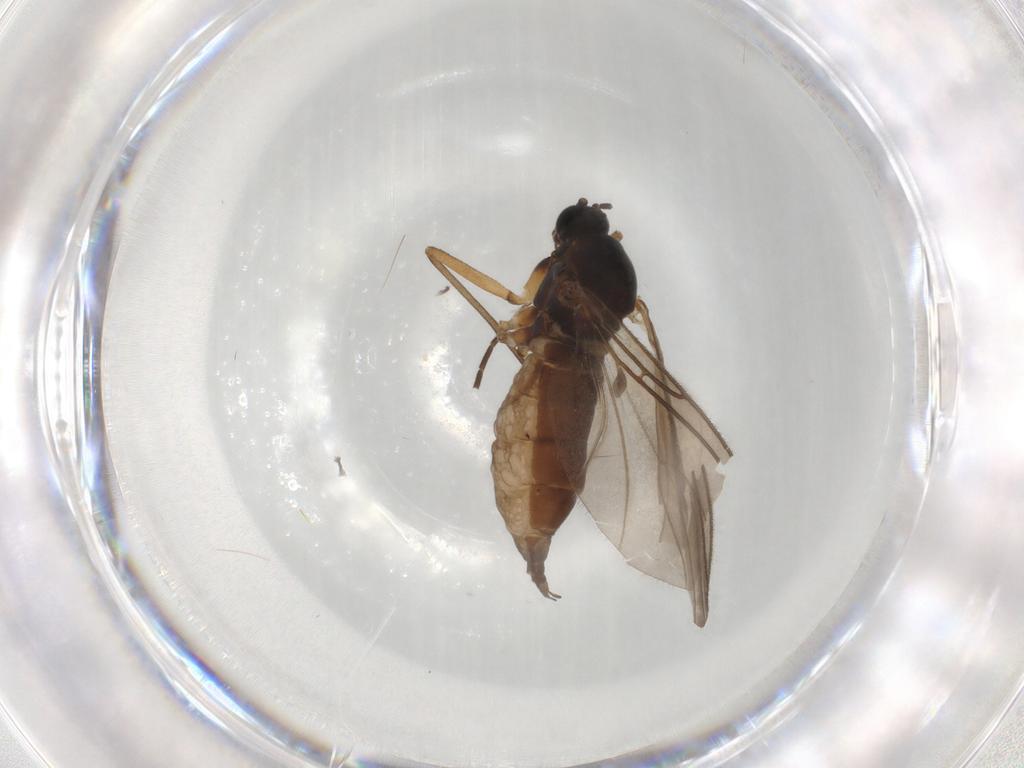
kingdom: Animalia
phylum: Arthropoda
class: Insecta
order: Diptera
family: Sciaridae
